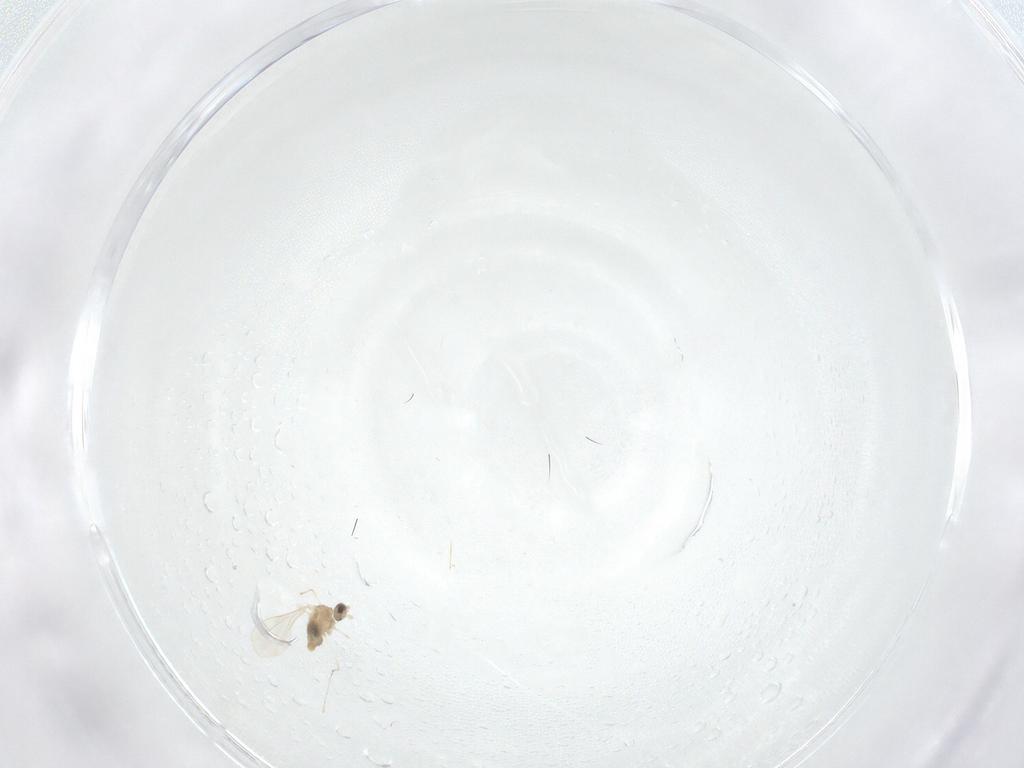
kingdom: Animalia
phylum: Arthropoda
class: Insecta
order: Diptera
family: Cecidomyiidae
